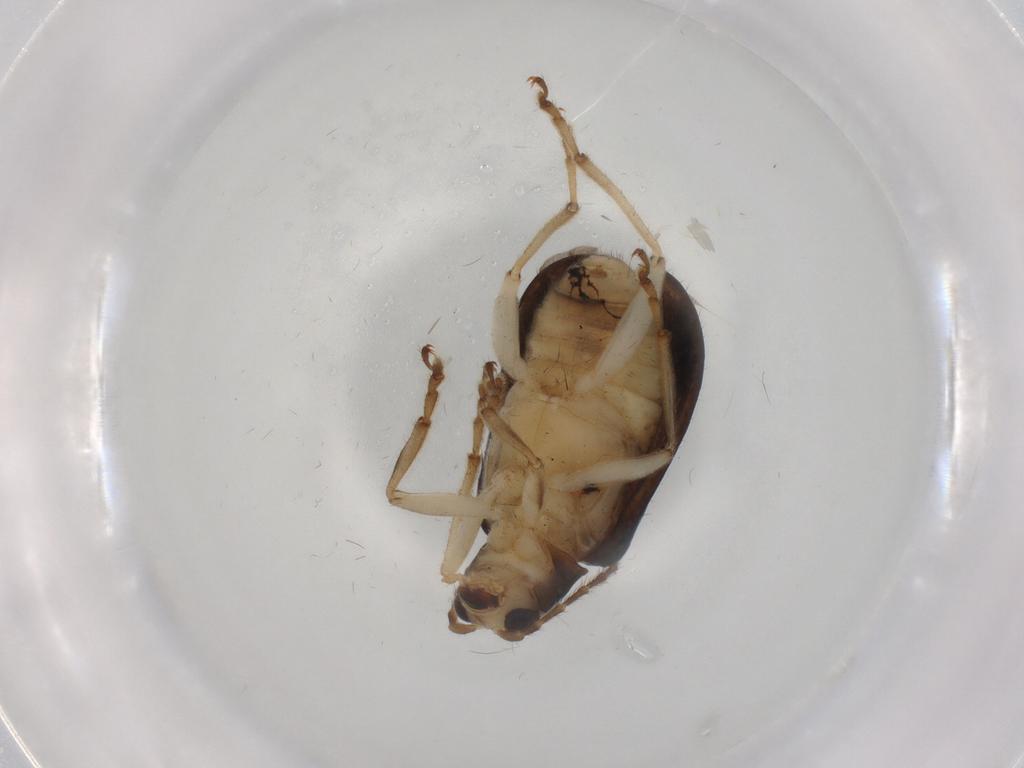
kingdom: Animalia
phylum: Arthropoda
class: Insecta
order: Coleoptera
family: Chrysomelidae
